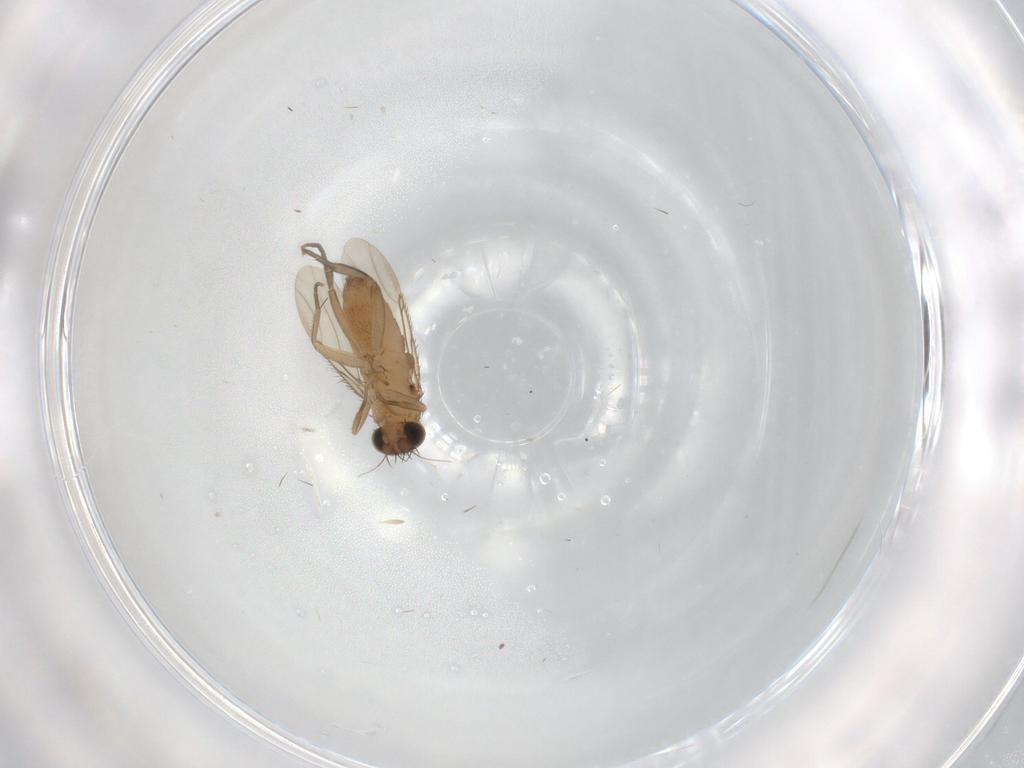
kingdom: Animalia
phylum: Arthropoda
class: Insecta
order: Diptera
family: Phoridae
